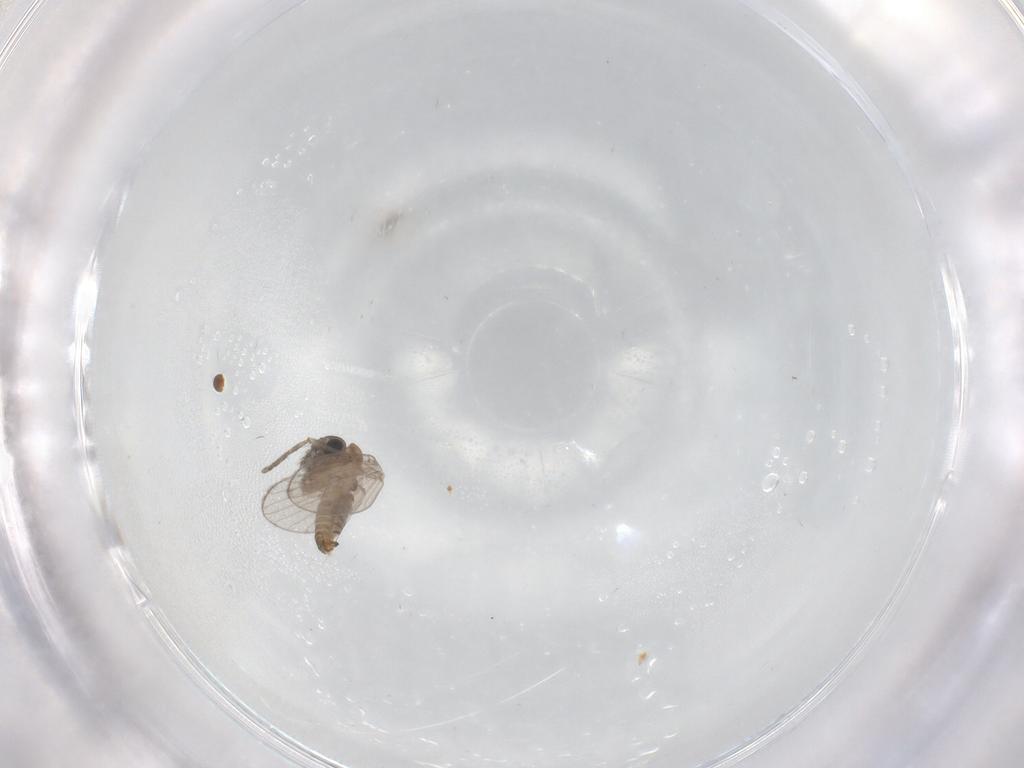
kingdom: Animalia
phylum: Arthropoda
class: Insecta
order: Diptera
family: Psychodidae
